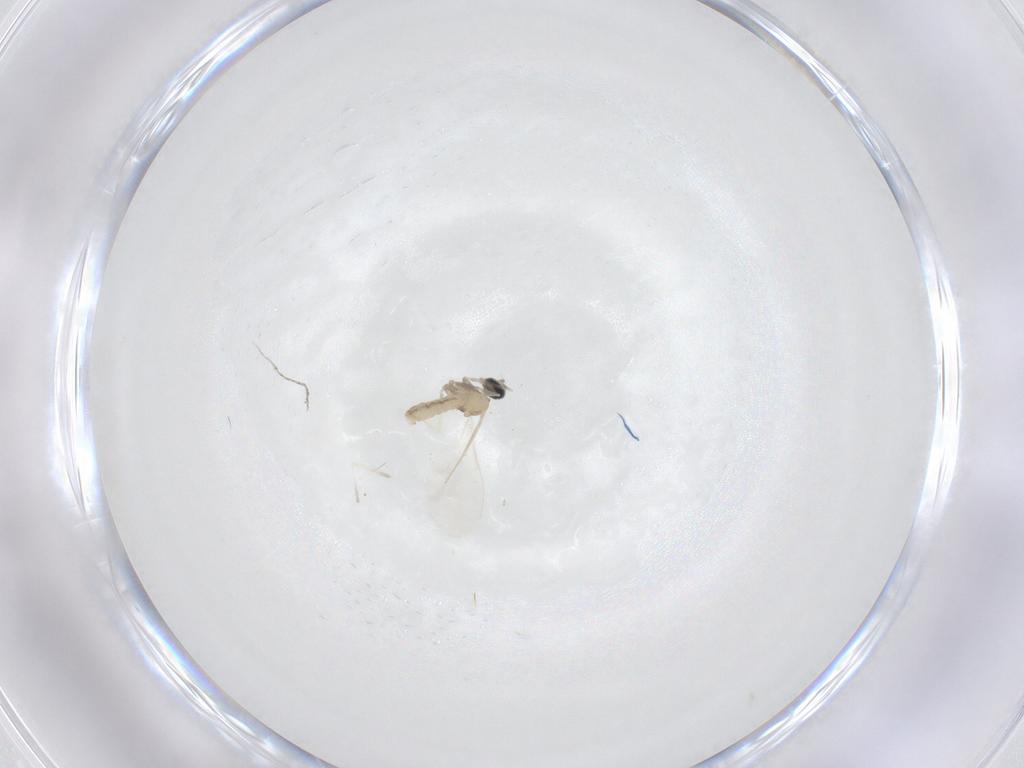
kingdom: Animalia
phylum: Arthropoda
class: Insecta
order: Diptera
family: Cecidomyiidae
